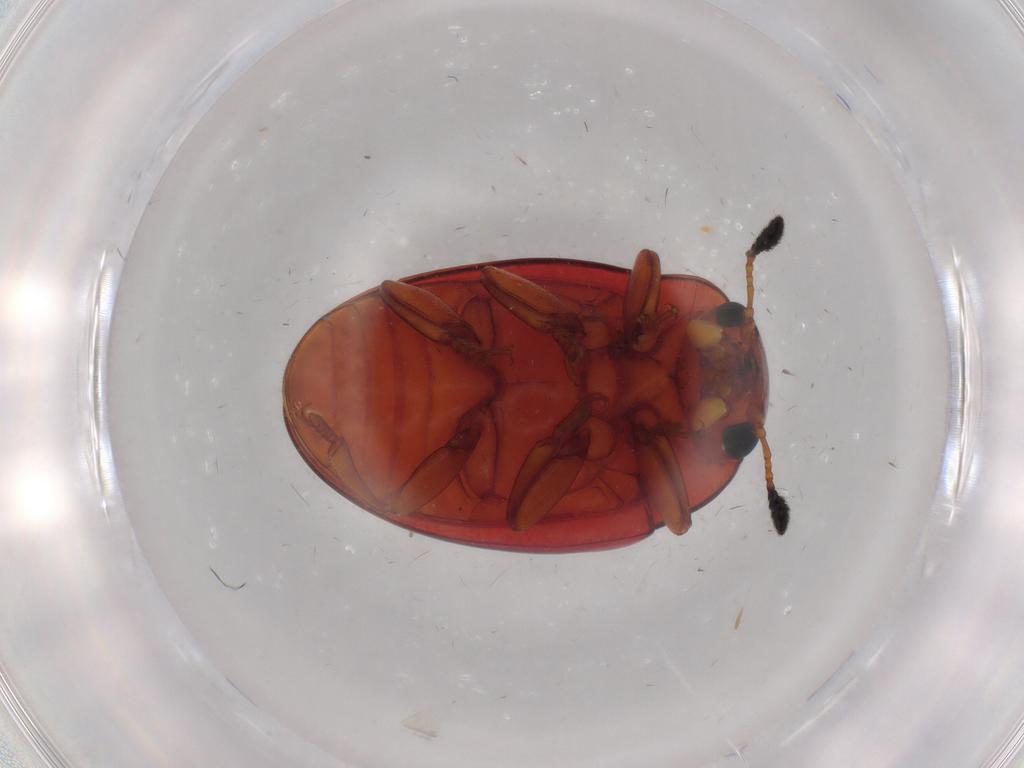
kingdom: Animalia
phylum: Arthropoda
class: Insecta
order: Coleoptera
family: Erotylidae
